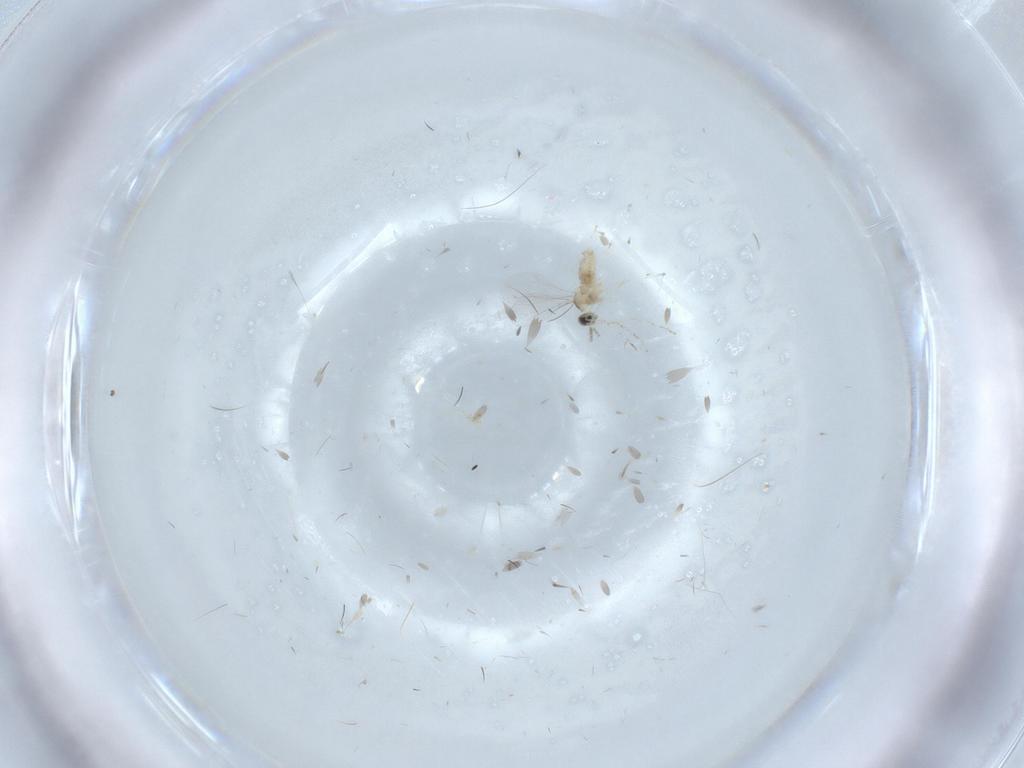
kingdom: Animalia
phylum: Arthropoda
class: Insecta
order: Diptera
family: Cecidomyiidae
